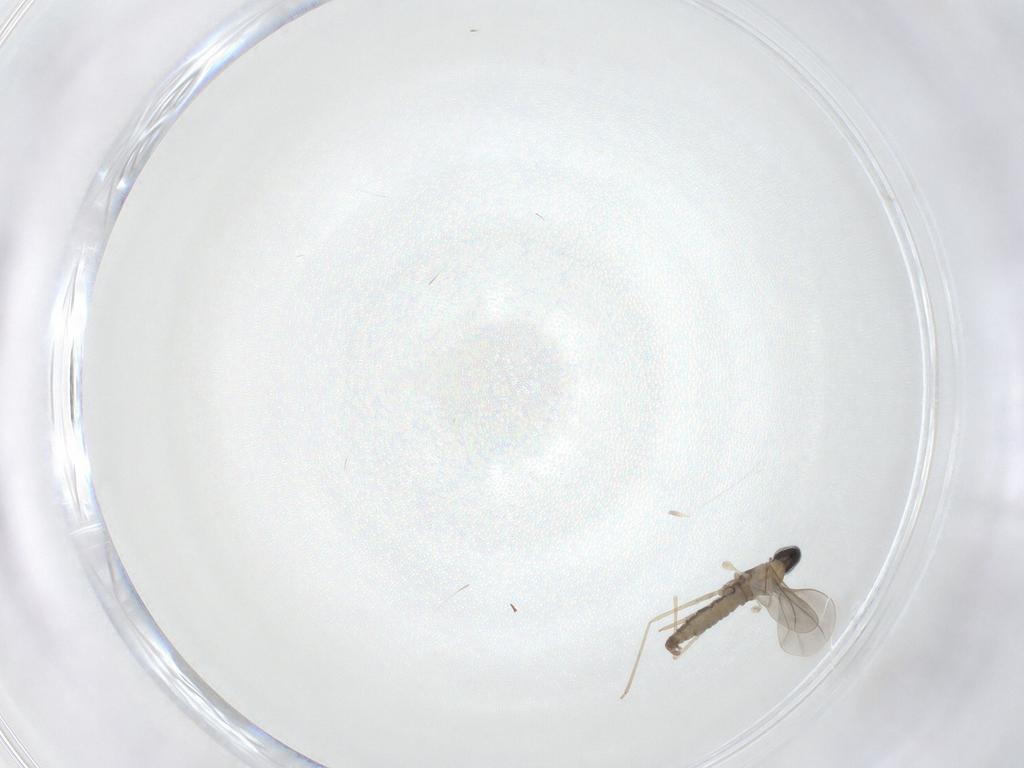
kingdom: Animalia
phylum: Arthropoda
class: Insecta
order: Diptera
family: Cecidomyiidae
